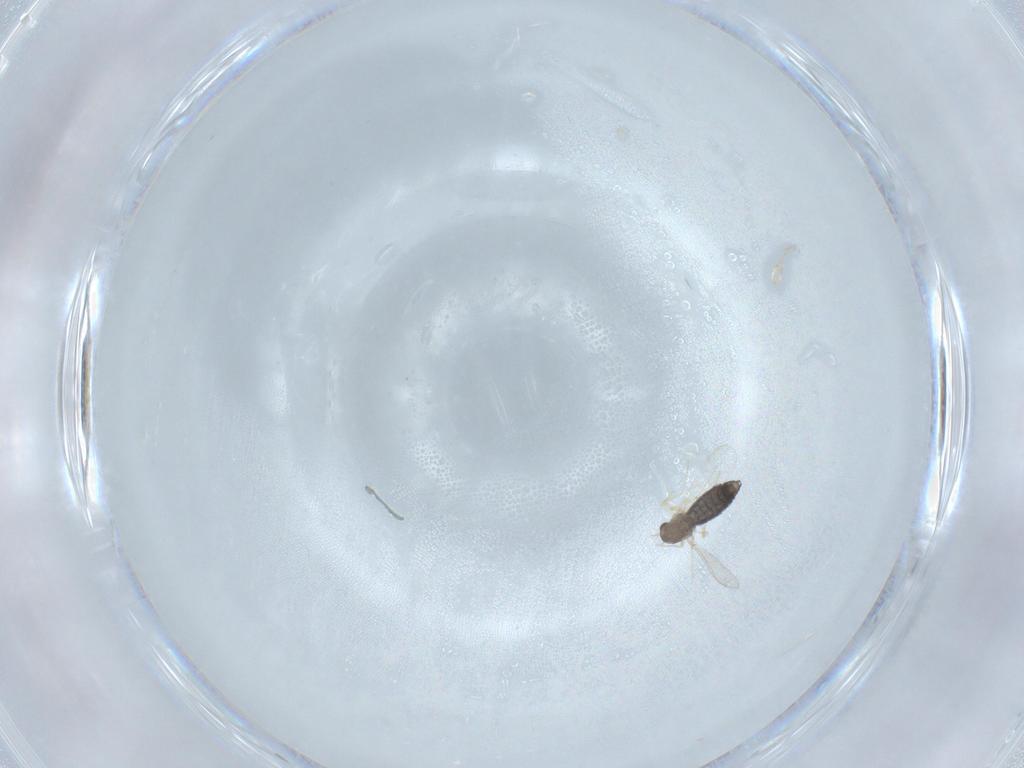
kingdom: Animalia
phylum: Arthropoda
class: Insecta
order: Diptera
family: Chironomidae
